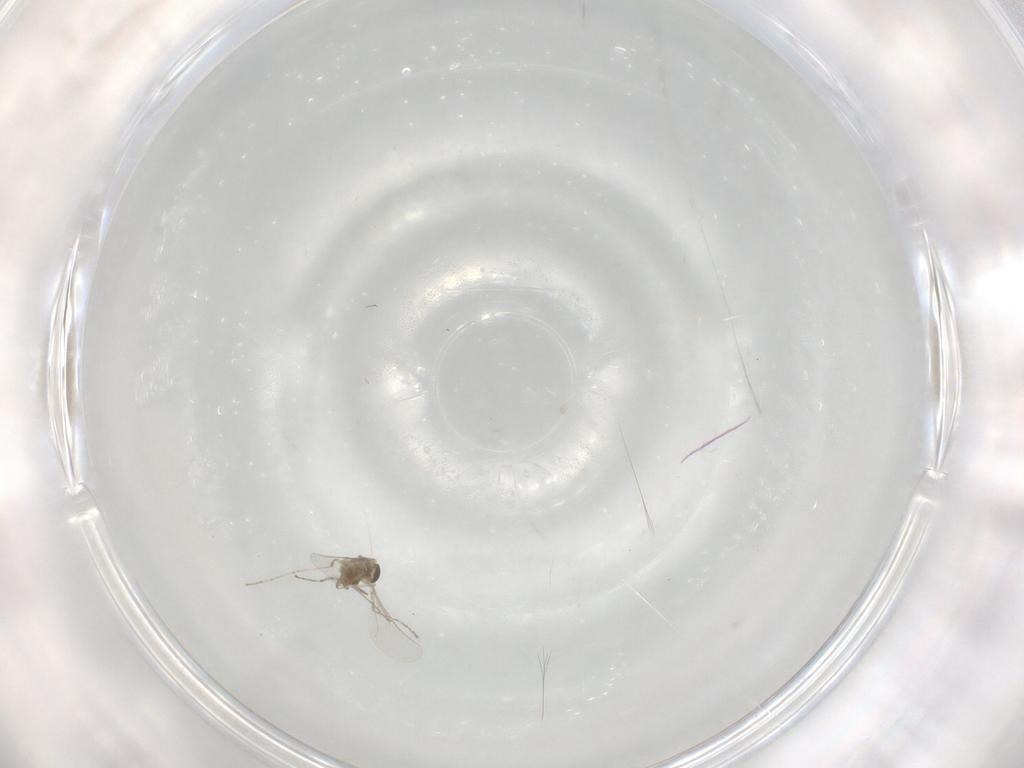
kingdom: Animalia
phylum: Arthropoda
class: Insecta
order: Diptera
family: Cecidomyiidae
